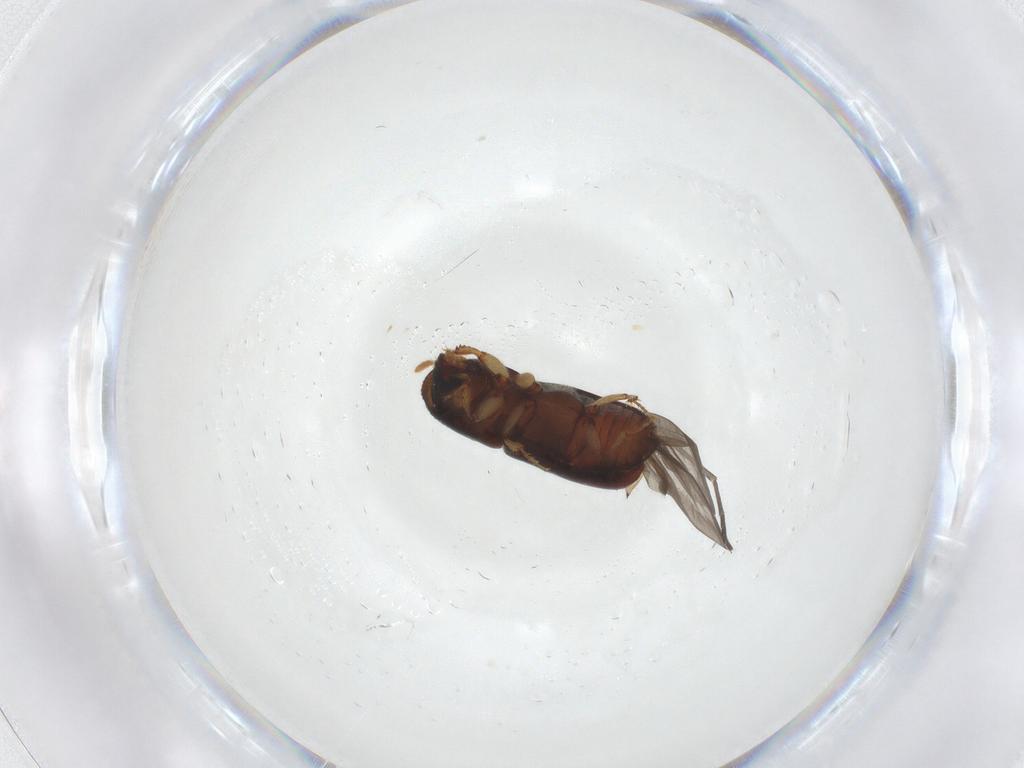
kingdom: Animalia
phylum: Arthropoda
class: Insecta
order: Coleoptera
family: Curculionidae
